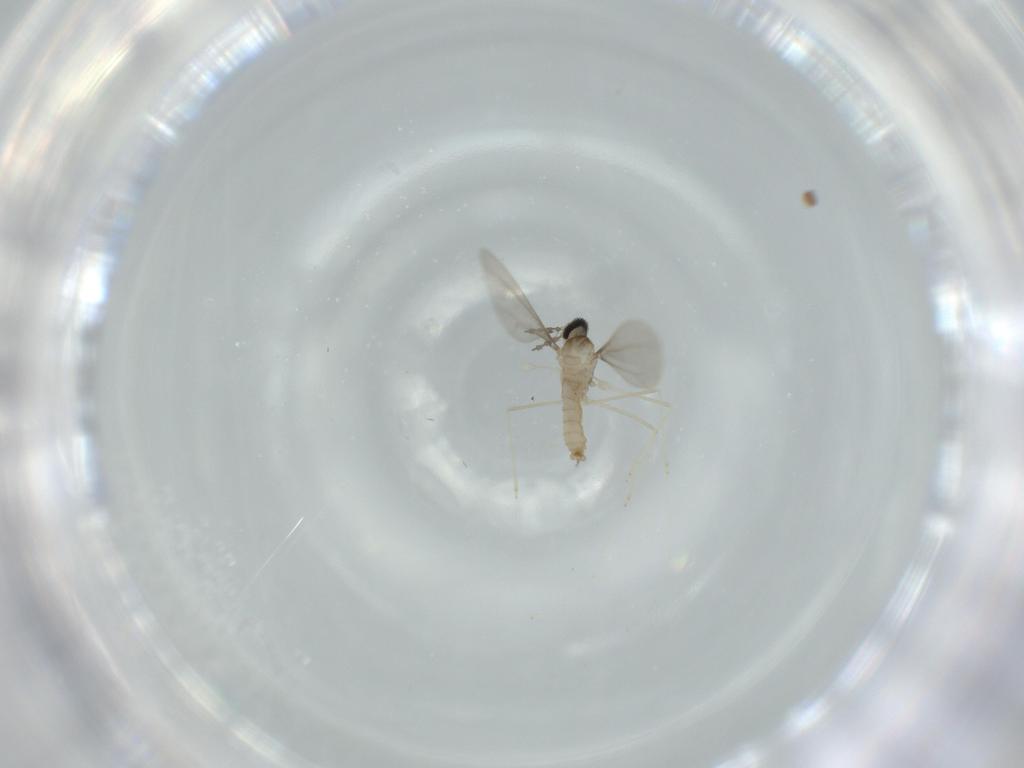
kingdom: Animalia
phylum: Arthropoda
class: Insecta
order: Diptera
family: Cecidomyiidae
